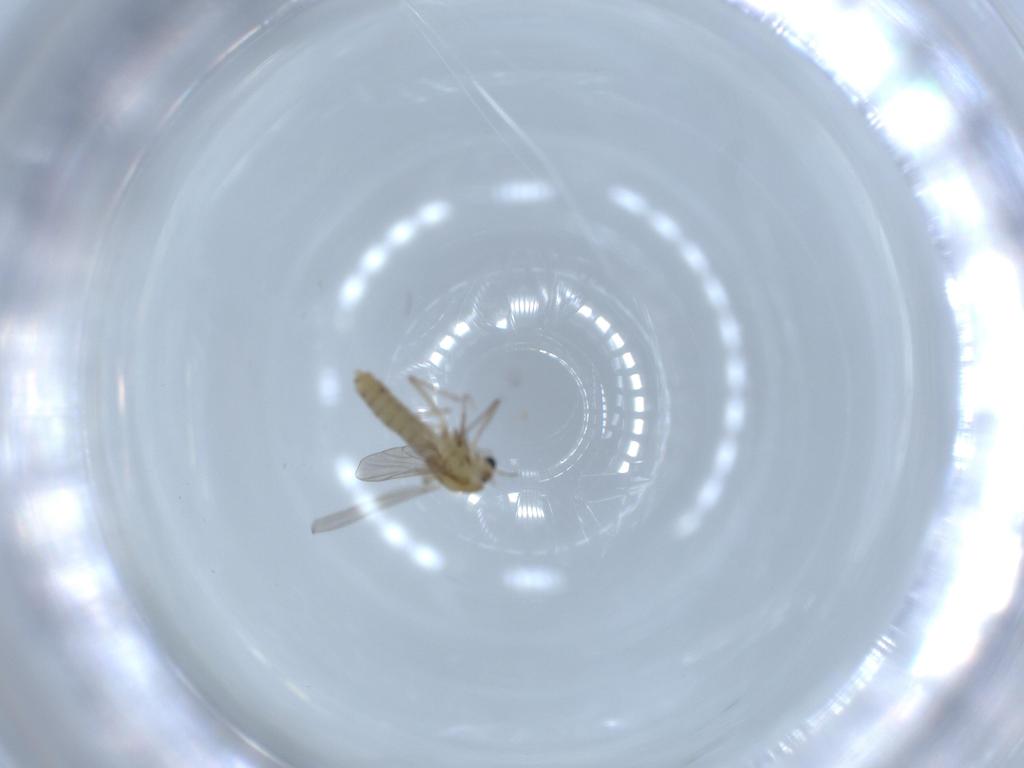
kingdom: Animalia
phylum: Arthropoda
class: Insecta
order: Diptera
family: Chironomidae
